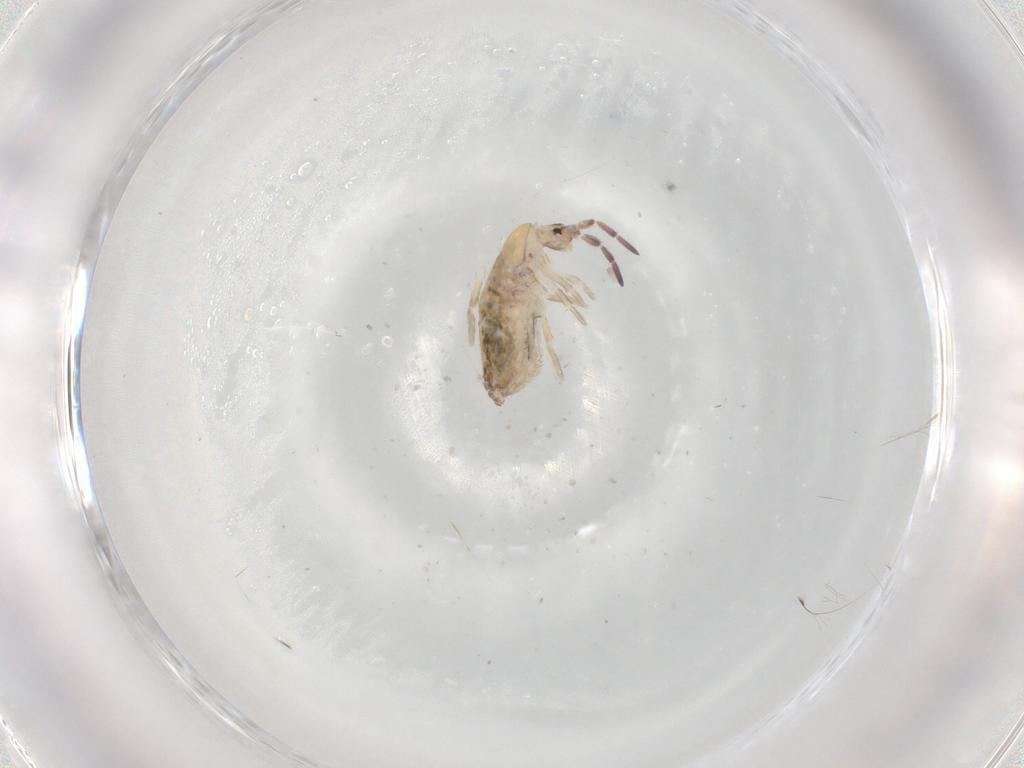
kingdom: Animalia
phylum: Arthropoda
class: Collembola
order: Entomobryomorpha
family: Entomobryidae
